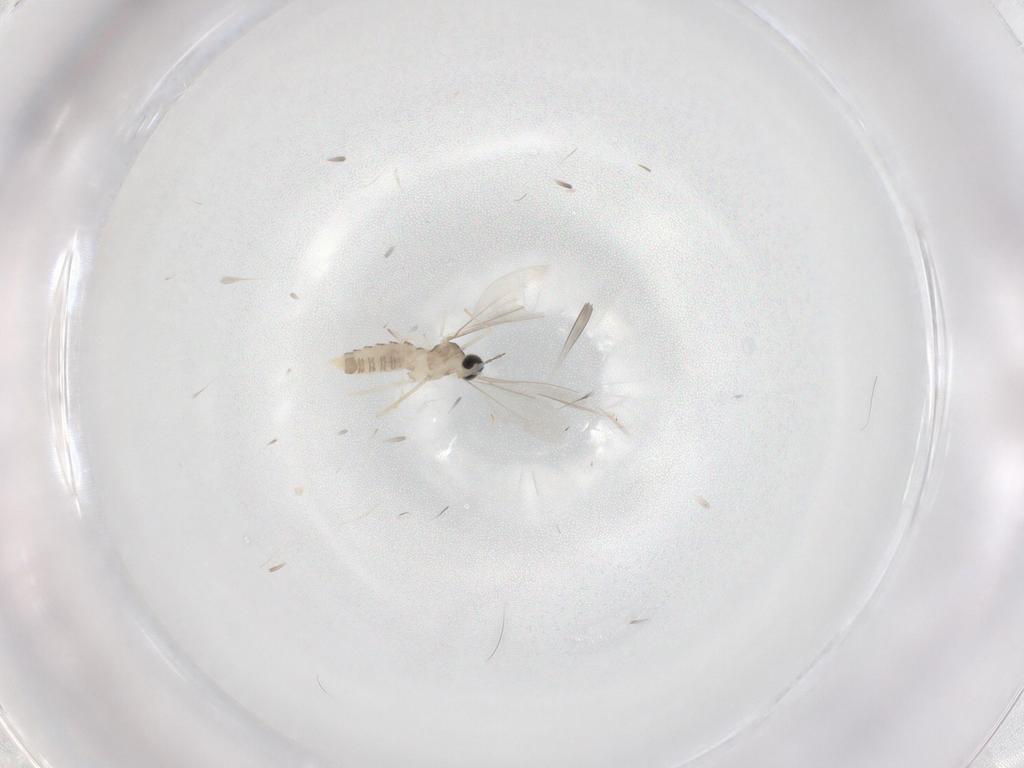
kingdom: Animalia
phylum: Arthropoda
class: Insecta
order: Diptera
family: Cecidomyiidae
